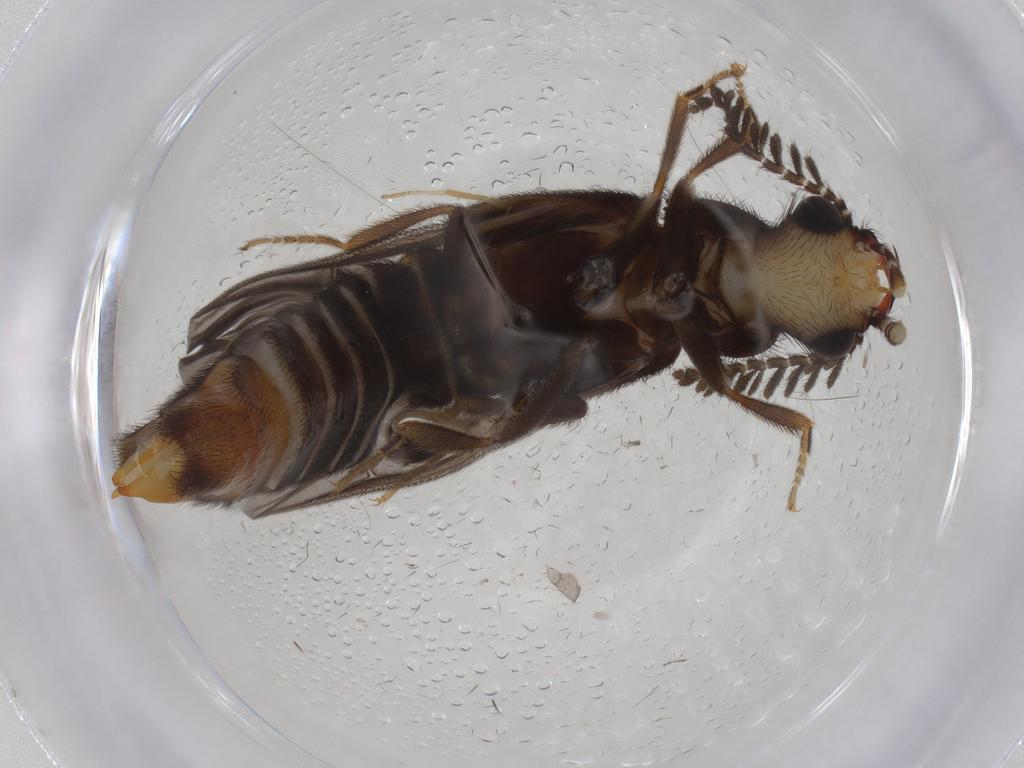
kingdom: Animalia
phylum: Arthropoda
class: Insecta
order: Coleoptera
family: Phengodidae
